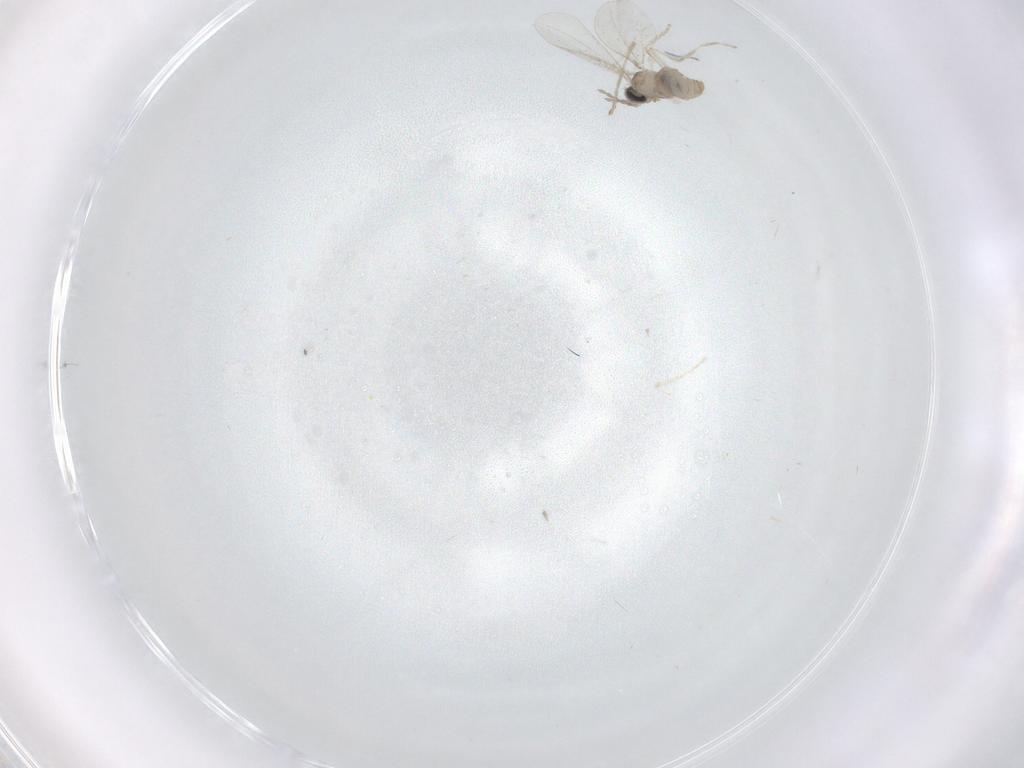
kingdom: Animalia
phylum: Arthropoda
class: Insecta
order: Diptera
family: Cecidomyiidae
